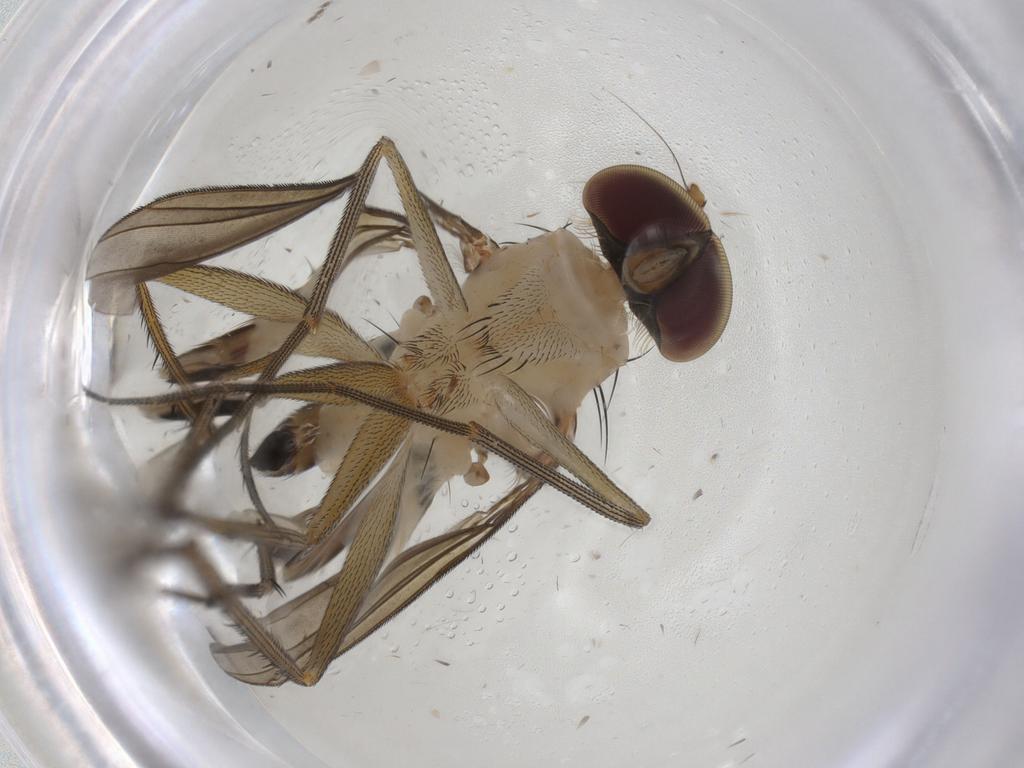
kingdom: Animalia
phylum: Arthropoda
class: Insecta
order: Diptera
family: Dolichopodidae
